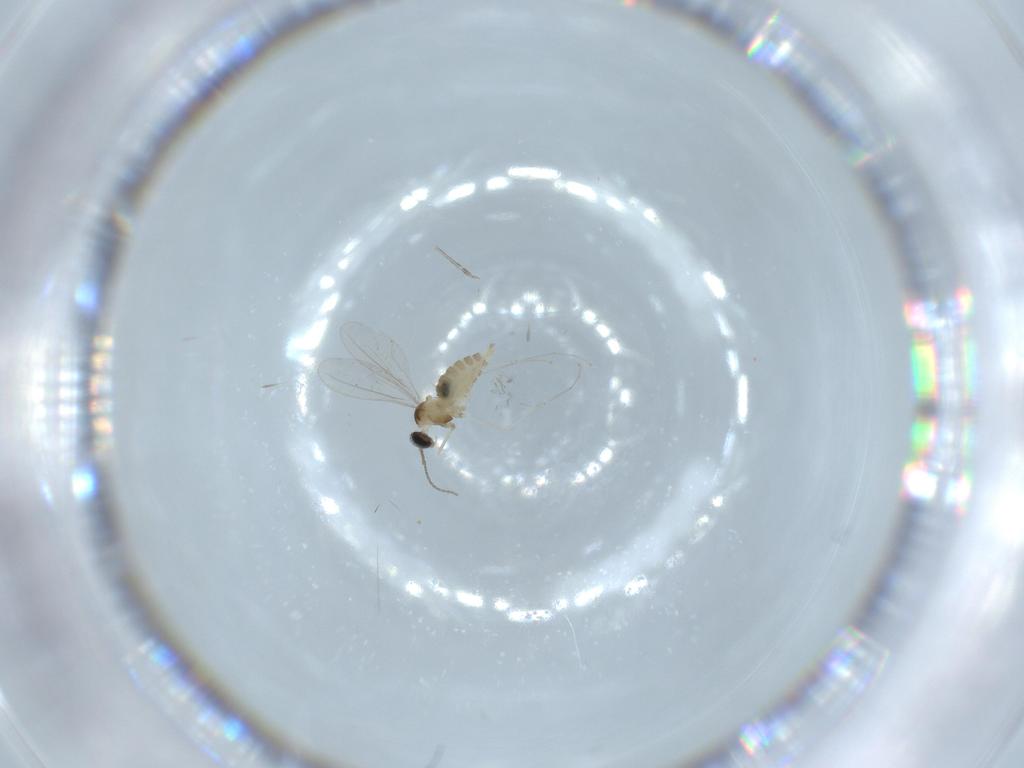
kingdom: Animalia
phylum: Arthropoda
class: Insecta
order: Diptera
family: Cecidomyiidae
